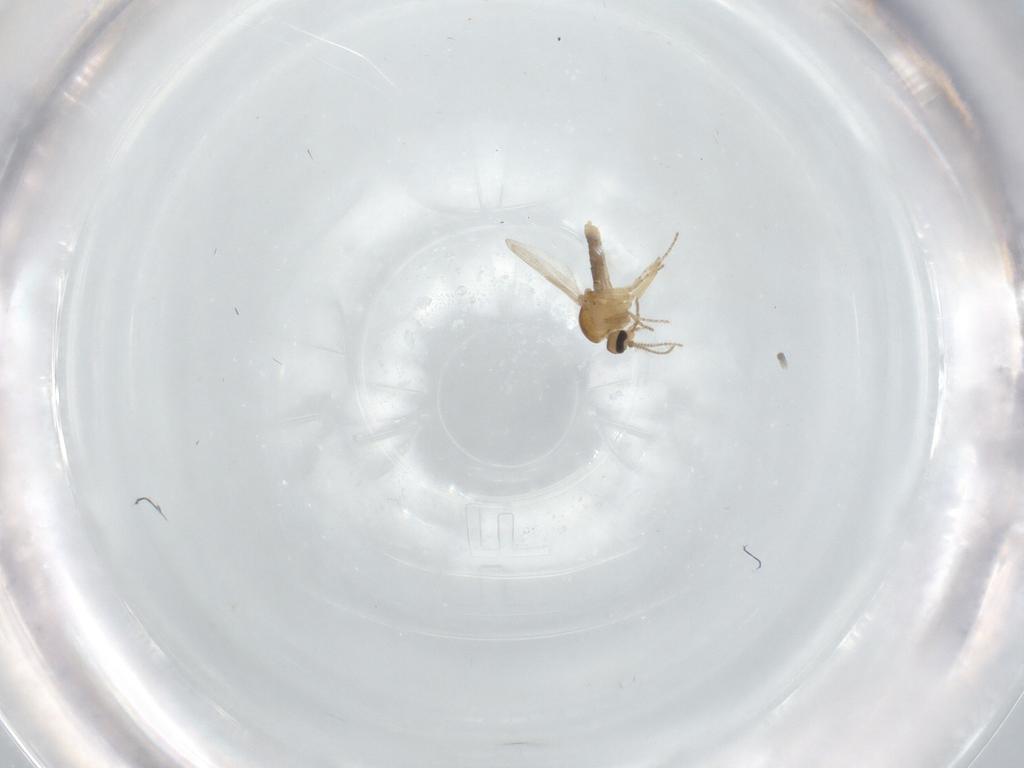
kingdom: Animalia
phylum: Arthropoda
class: Insecta
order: Diptera
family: Ceratopogonidae
